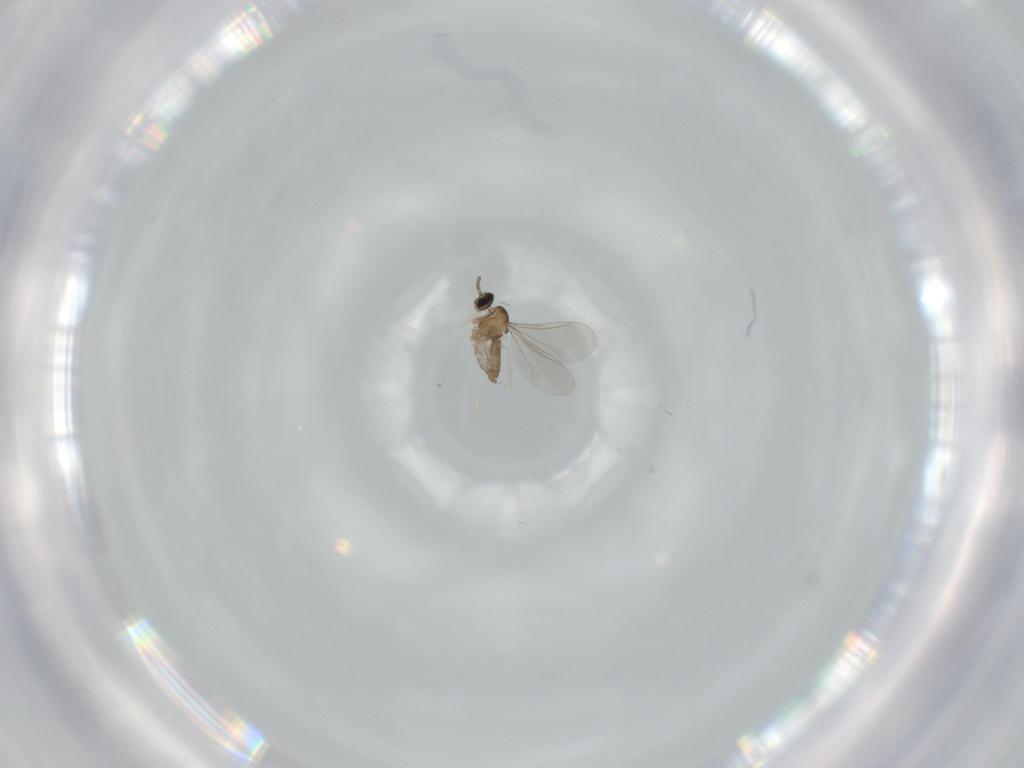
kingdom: Animalia
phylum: Arthropoda
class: Insecta
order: Diptera
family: Cecidomyiidae
